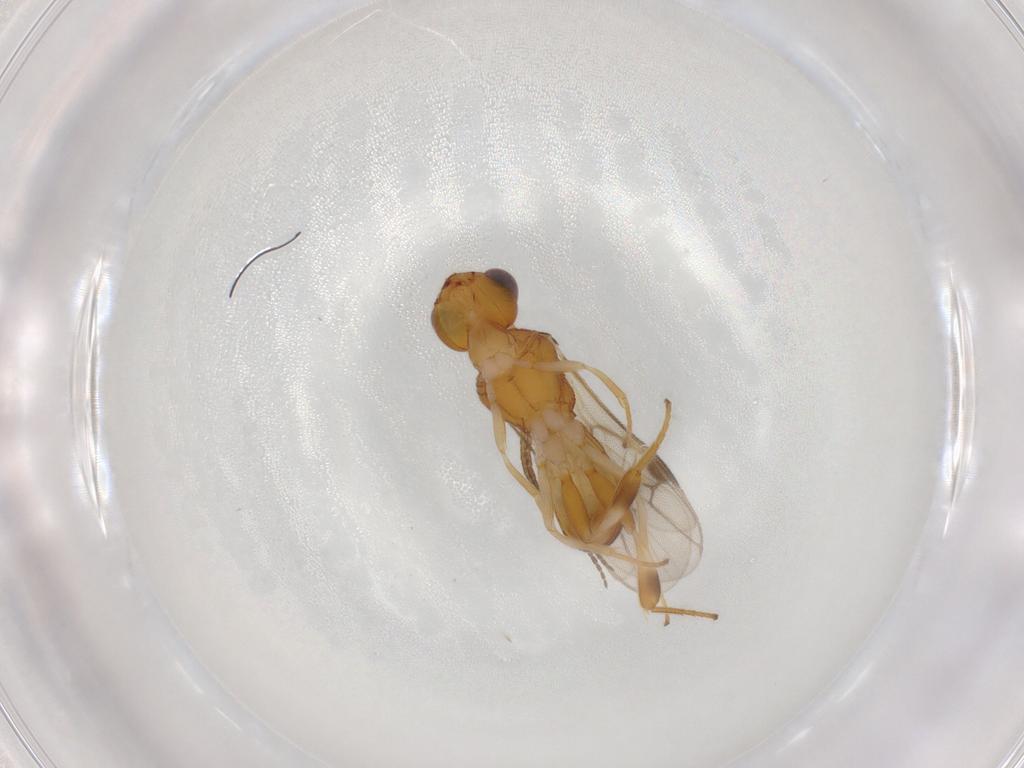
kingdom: Animalia
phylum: Arthropoda
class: Insecta
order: Hymenoptera
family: Braconidae
